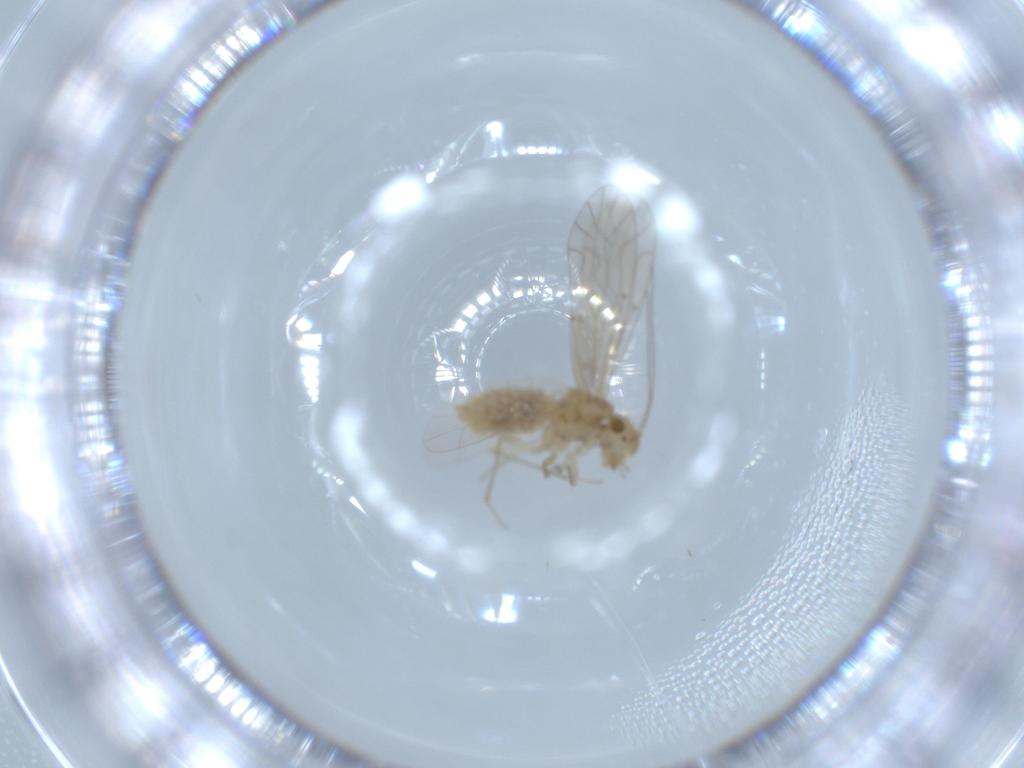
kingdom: Animalia
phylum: Arthropoda
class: Insecta
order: Psocodea
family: Lachesillidae
